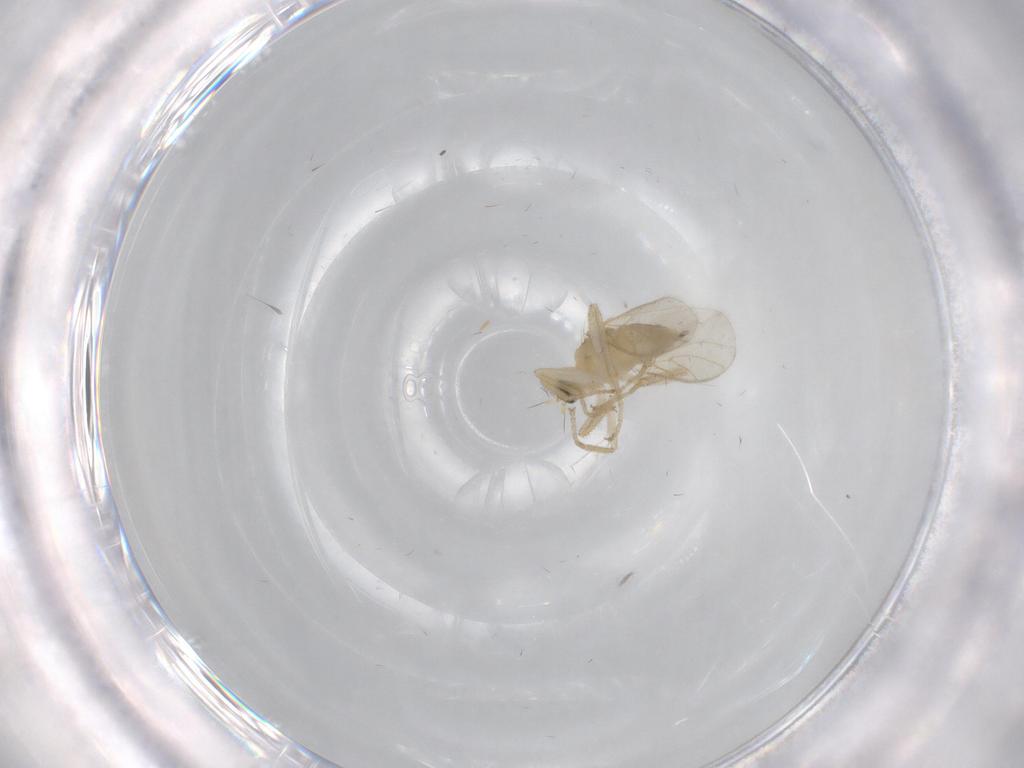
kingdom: Animalia
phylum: Arthropoda
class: Insecta
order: Diptera
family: Hybotidae
